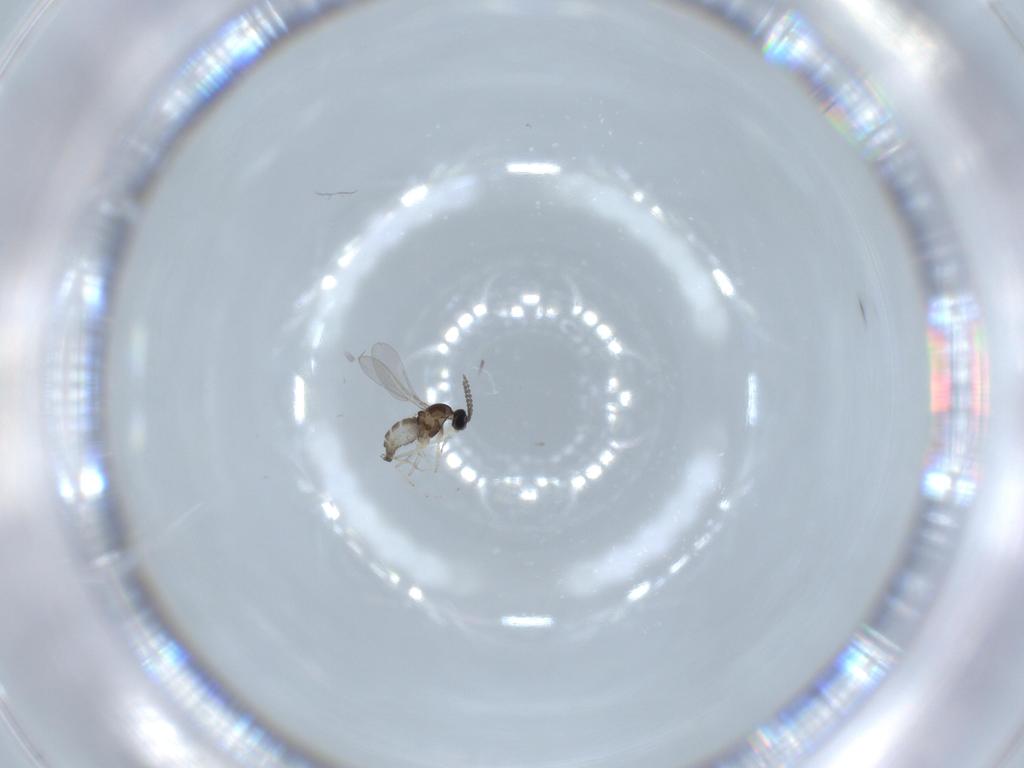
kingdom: Animalia
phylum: Arthropoda
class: Insecta
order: Diptera
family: Cecidomyiidae
